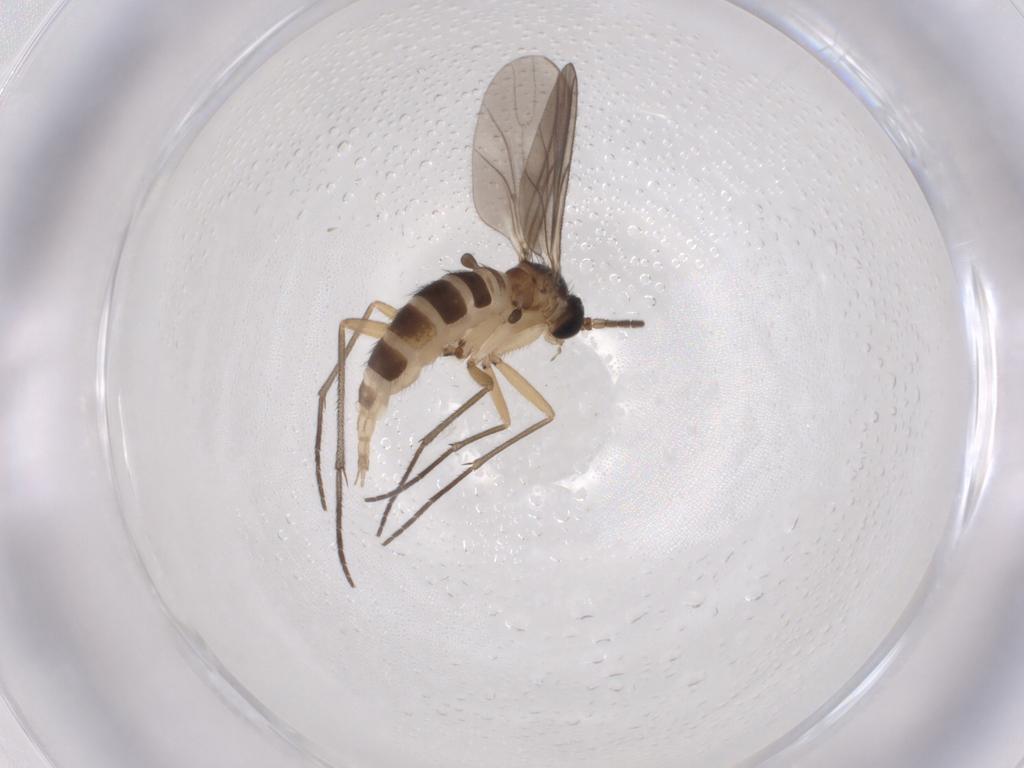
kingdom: Animalia
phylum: Arthropoda
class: Insecta
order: Diptera
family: Sciaridae
